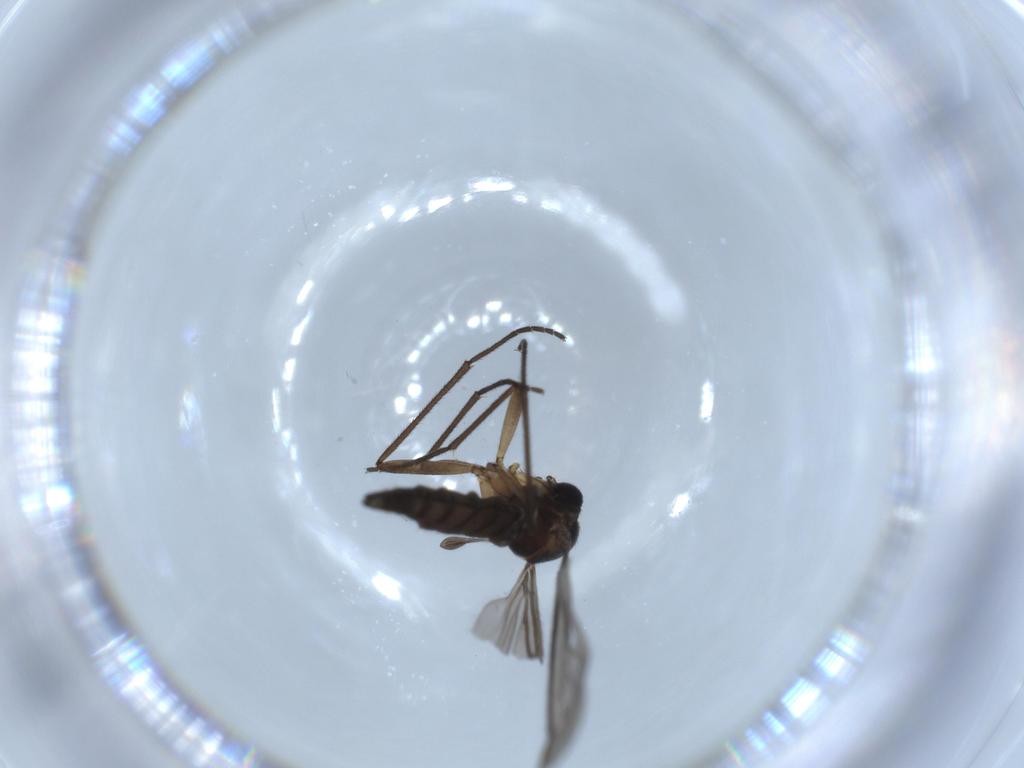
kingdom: Animalia
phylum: Arthropoda
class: Insecta
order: Diptera
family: Sciaridae
